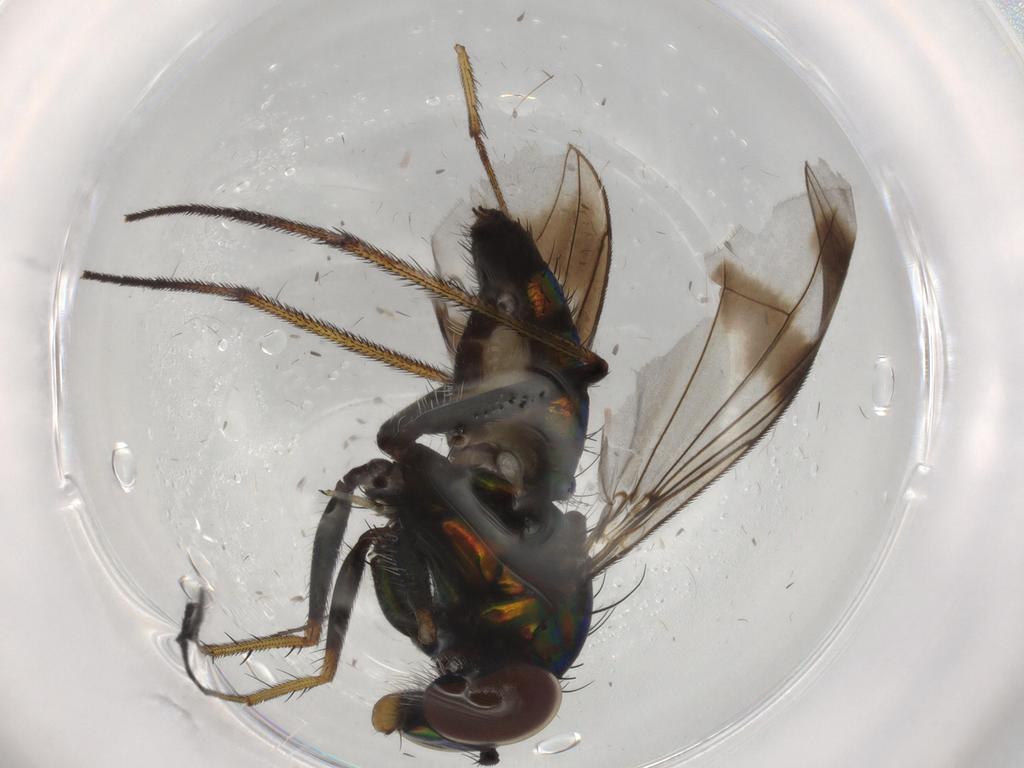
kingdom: Animalia
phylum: Arthropoda
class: Insecta
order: Diptera
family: Dolichopodidae
